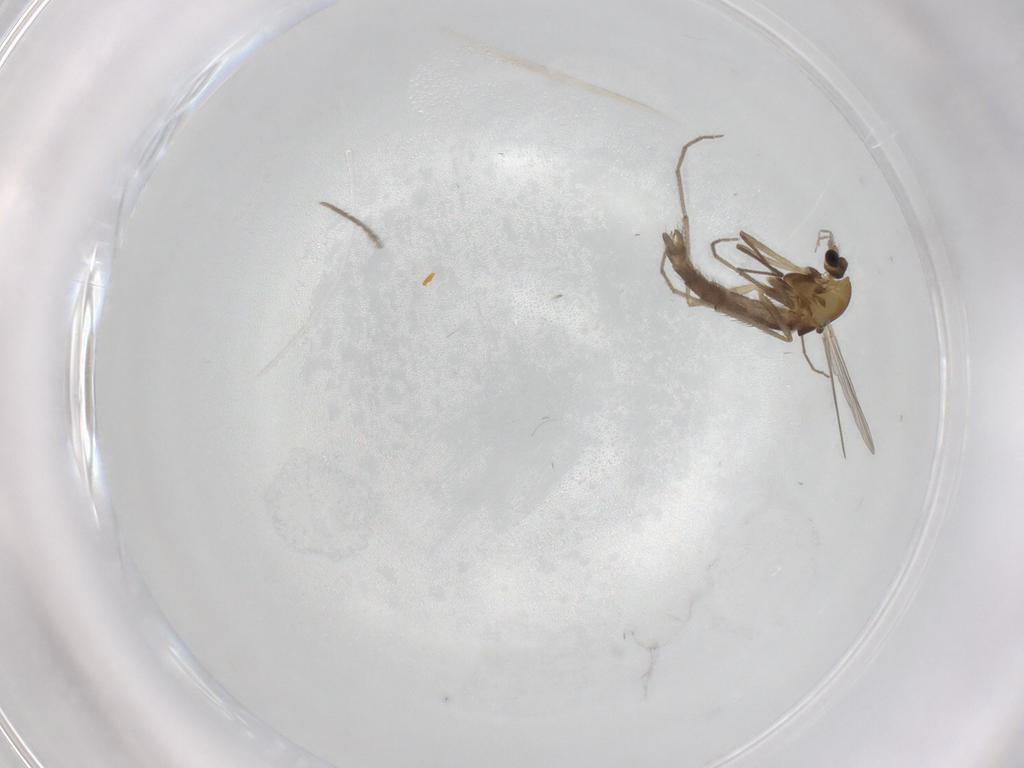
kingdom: Animalia
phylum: Arthropoda
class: Insecta
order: Diptera
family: Chironomidae
